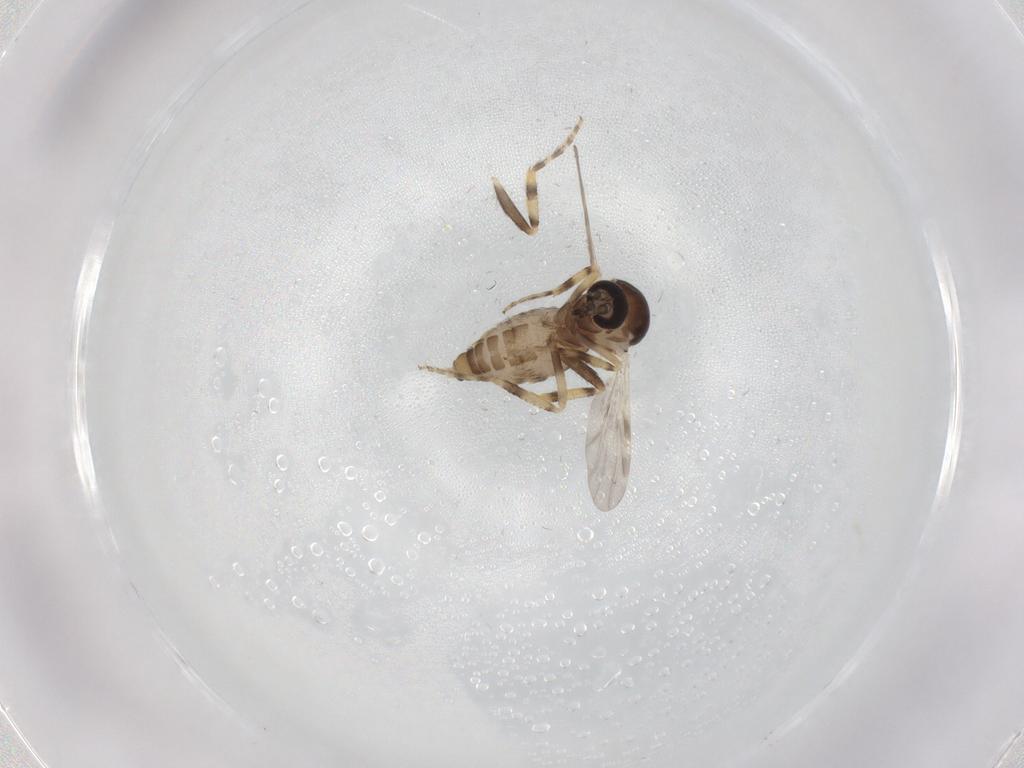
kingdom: Animalia
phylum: Arthropoda
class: Insecta
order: Diptera
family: Ceratopogonidae
